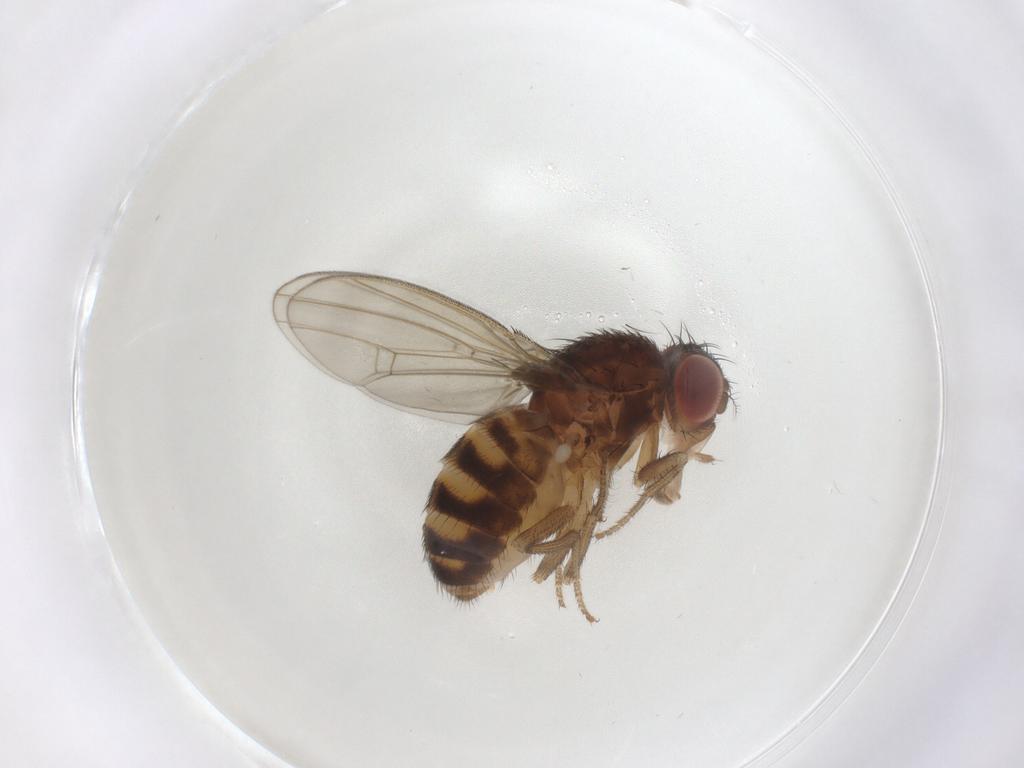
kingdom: Animalia
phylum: Arthropoda
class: Insecta
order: Diptera
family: Drosophilidae
